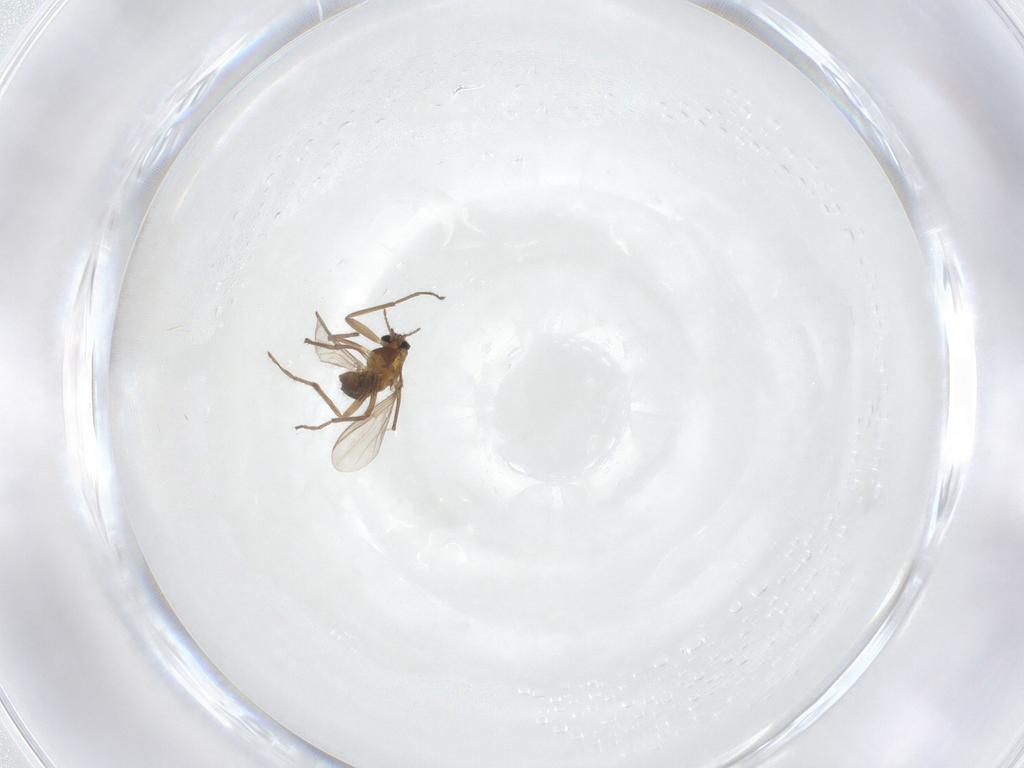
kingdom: Animalia
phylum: Arthropoda
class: Insecta
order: Diptera
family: Chironomidae
